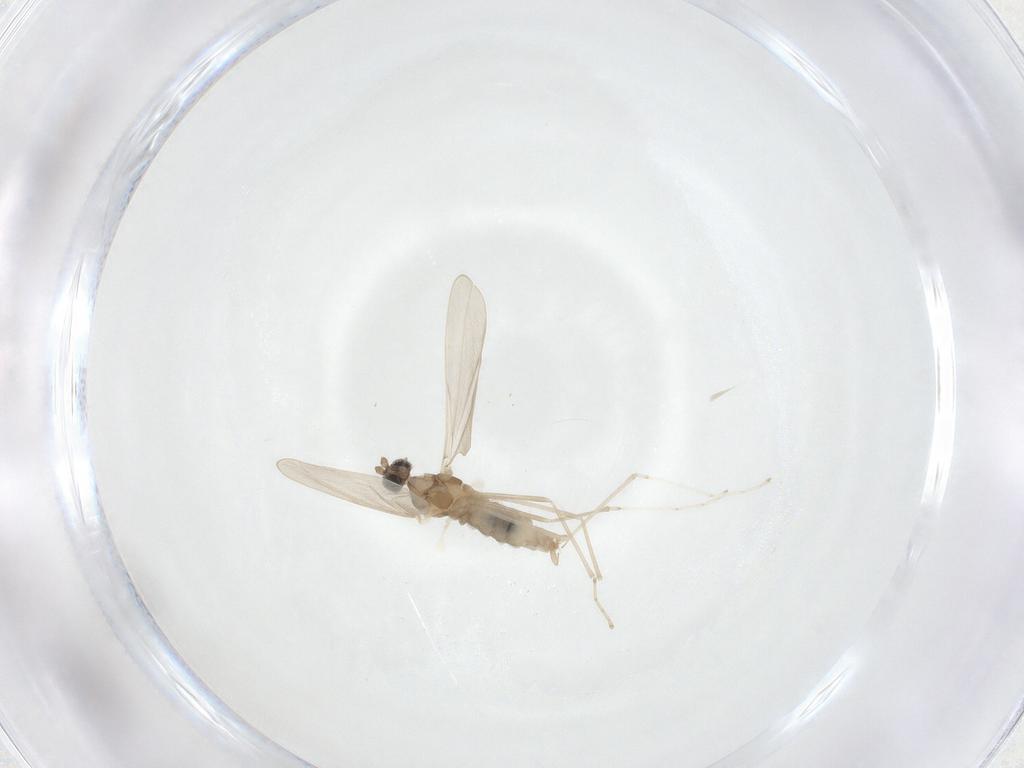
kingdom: Animalia
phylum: Arthropoda
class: Insecta
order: Diptera
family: Cecidomyiidae
